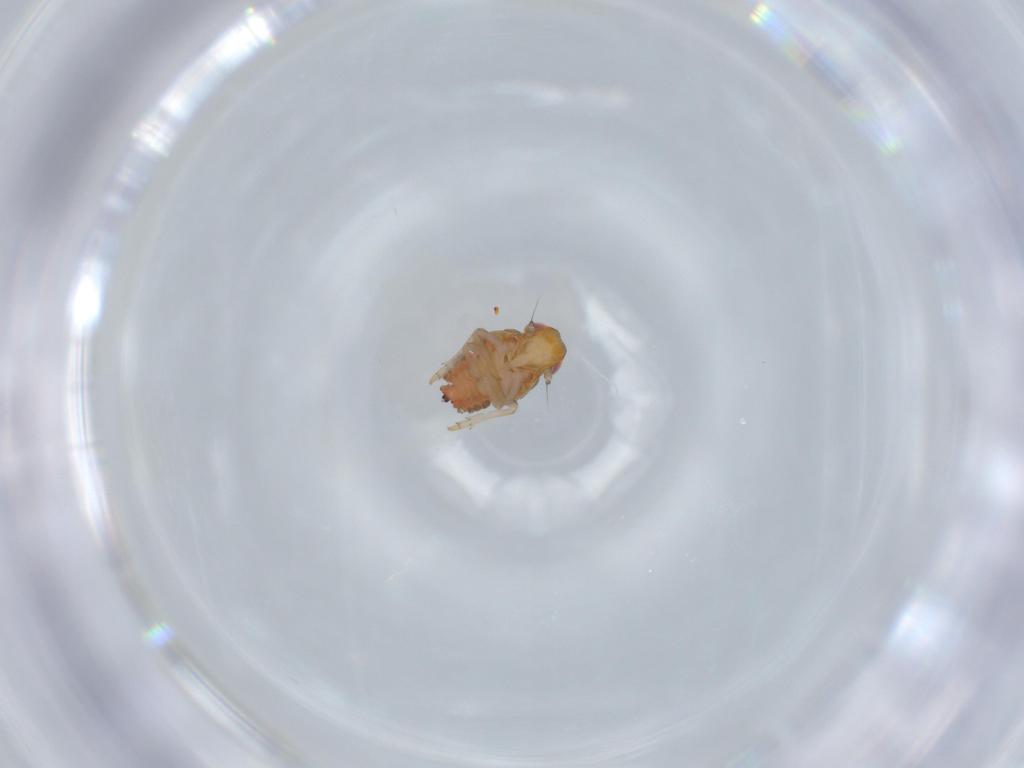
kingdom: Animalia
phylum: Arthropoda
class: Insecta
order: Hemiptera
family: Issidae
